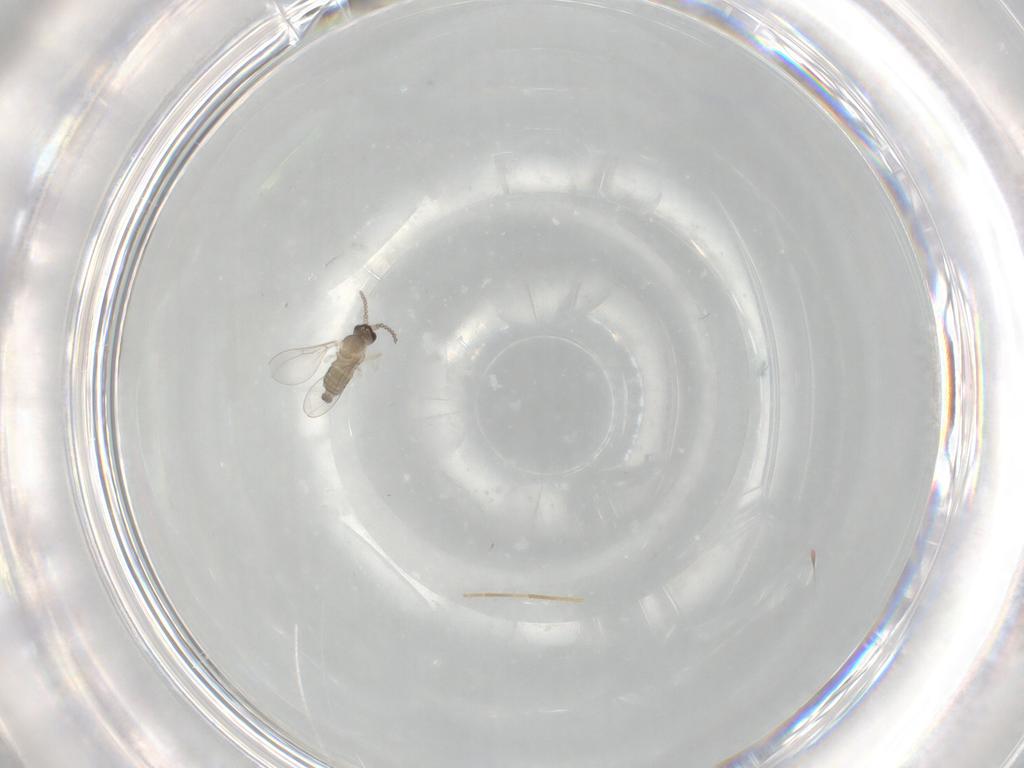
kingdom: Animalia
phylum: Arthropoda
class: Insecta
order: Diptera
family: Cecidomyiidae
